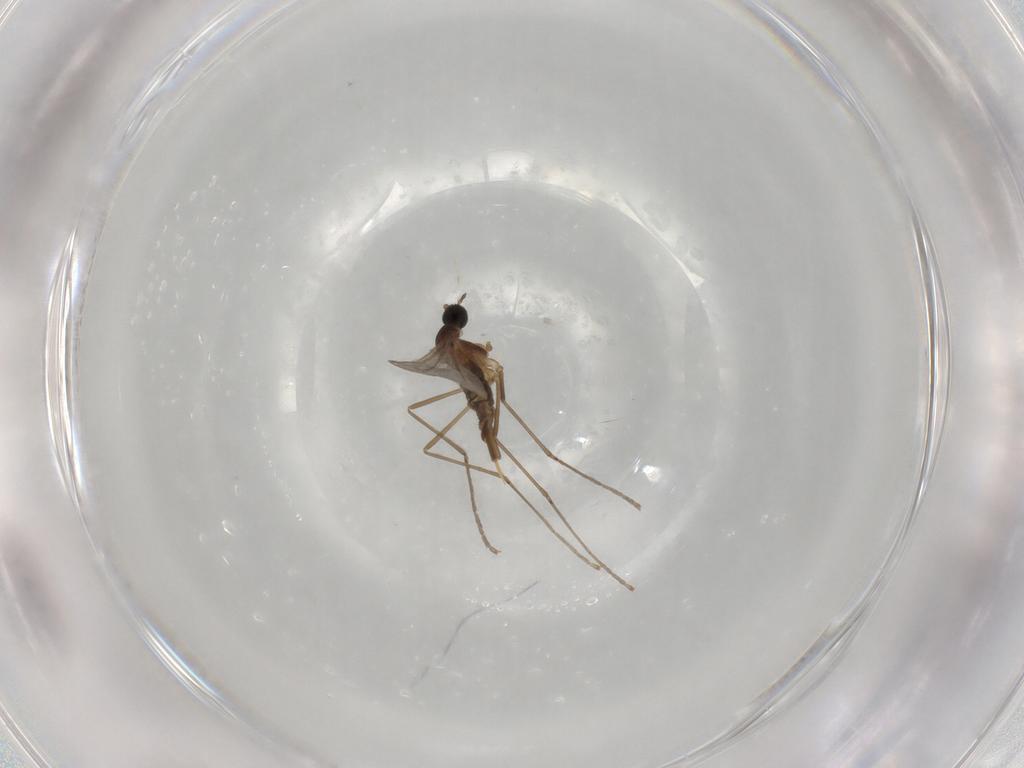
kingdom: Animalia
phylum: Arthropoda
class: Insecta
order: Diptera
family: Cecidomyiidae
